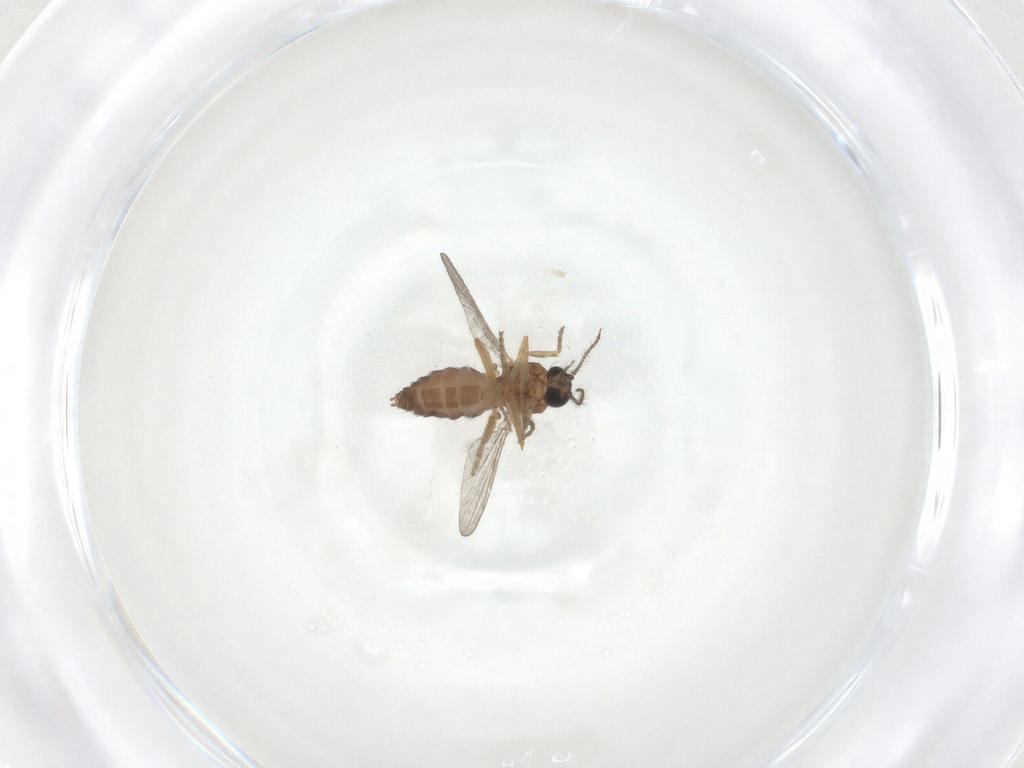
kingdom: Animalia
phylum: Arthropoda
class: Insecta
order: Diptera
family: Ceratopogonidae
